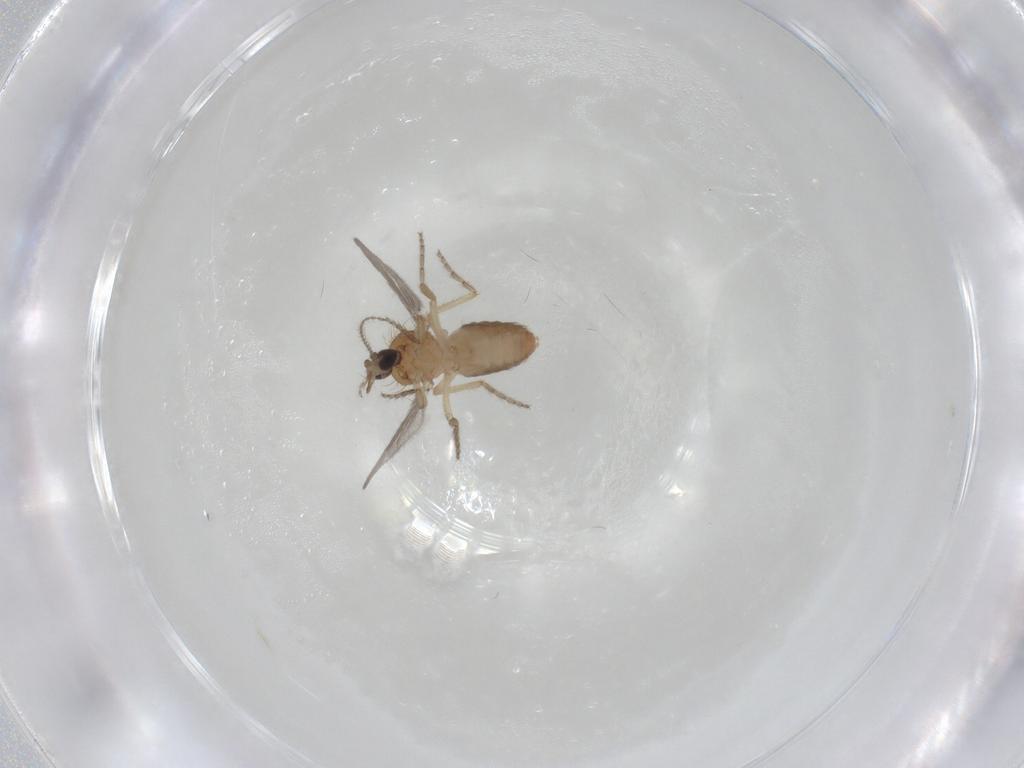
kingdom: Animalia
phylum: Arthropoda
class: Insecta
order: Diptera
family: Ceratopogonidae
